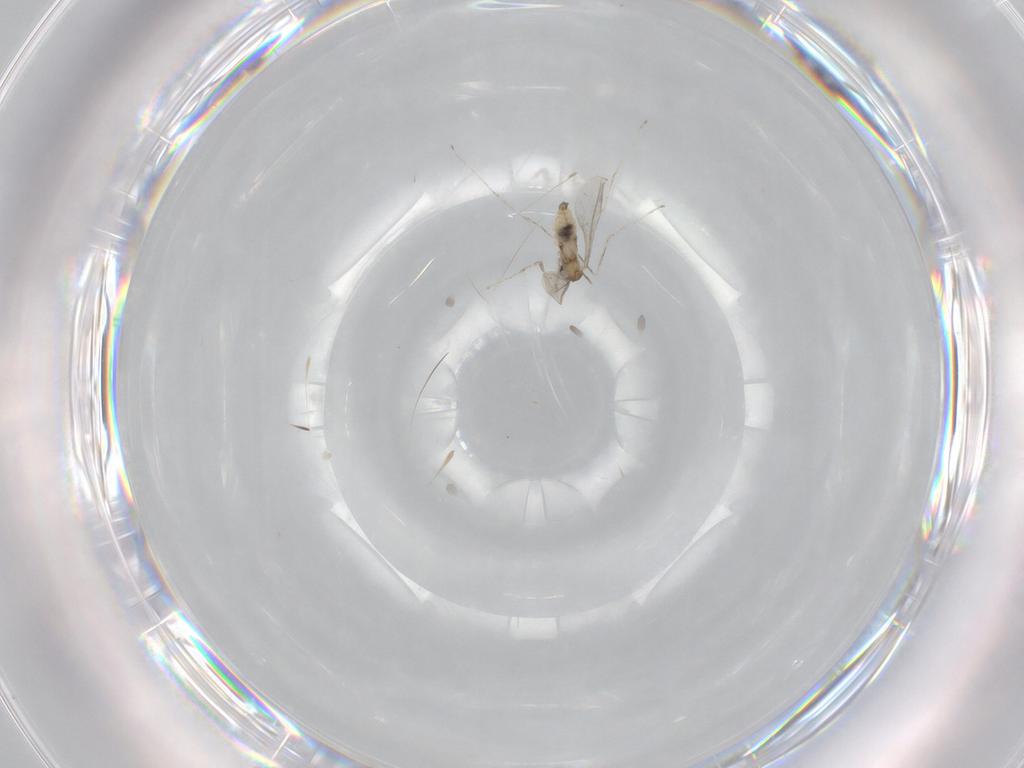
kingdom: Animalia
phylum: Arthropoda
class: Insecta
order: Diptera
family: Cecidomyiidae
